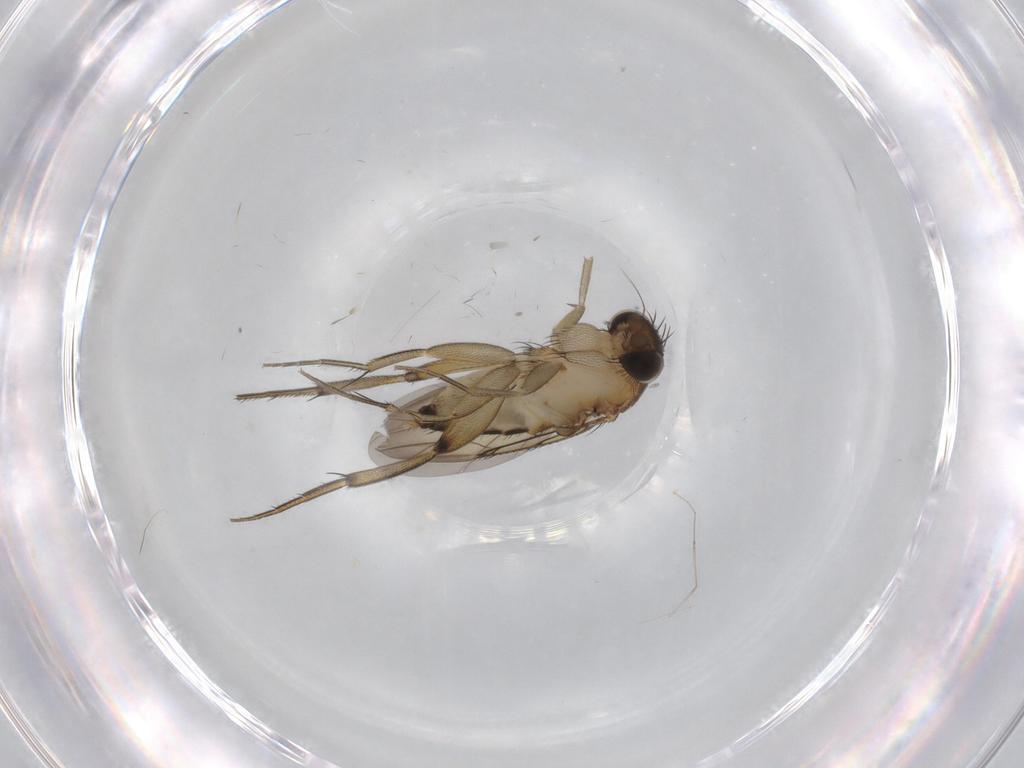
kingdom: Animalia
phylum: Arthropoda
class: Insecta
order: Diptera
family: Phoridae
